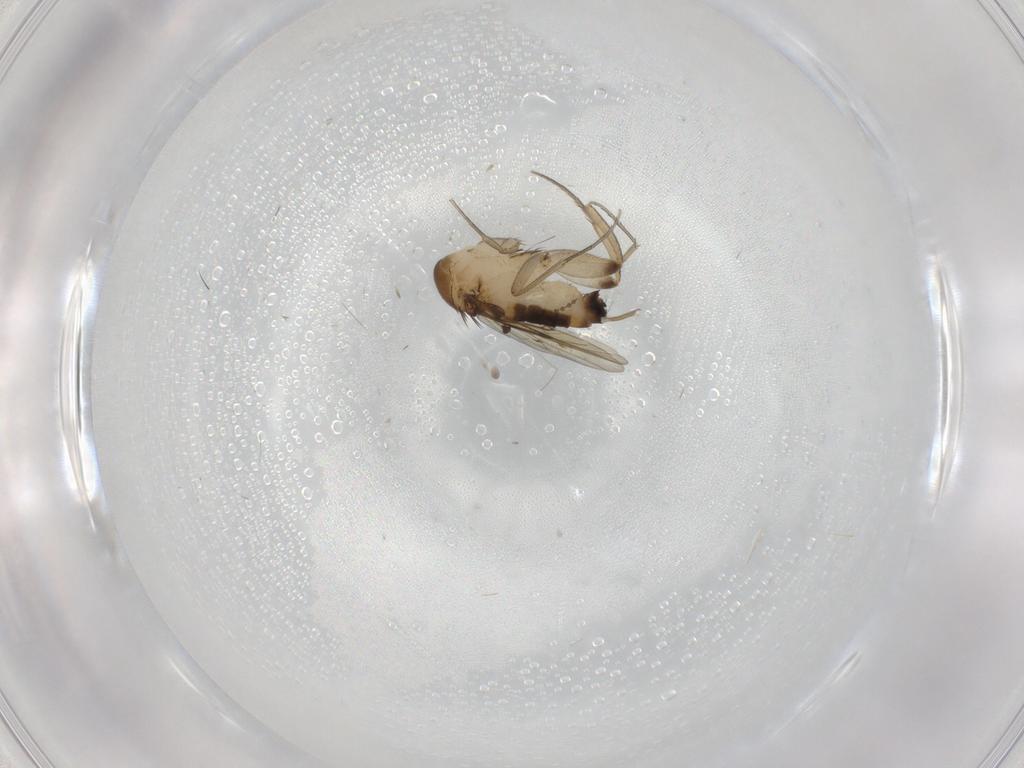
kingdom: Animalia
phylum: Arthropoda
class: Insecta
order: Diptera
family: Phoridae
